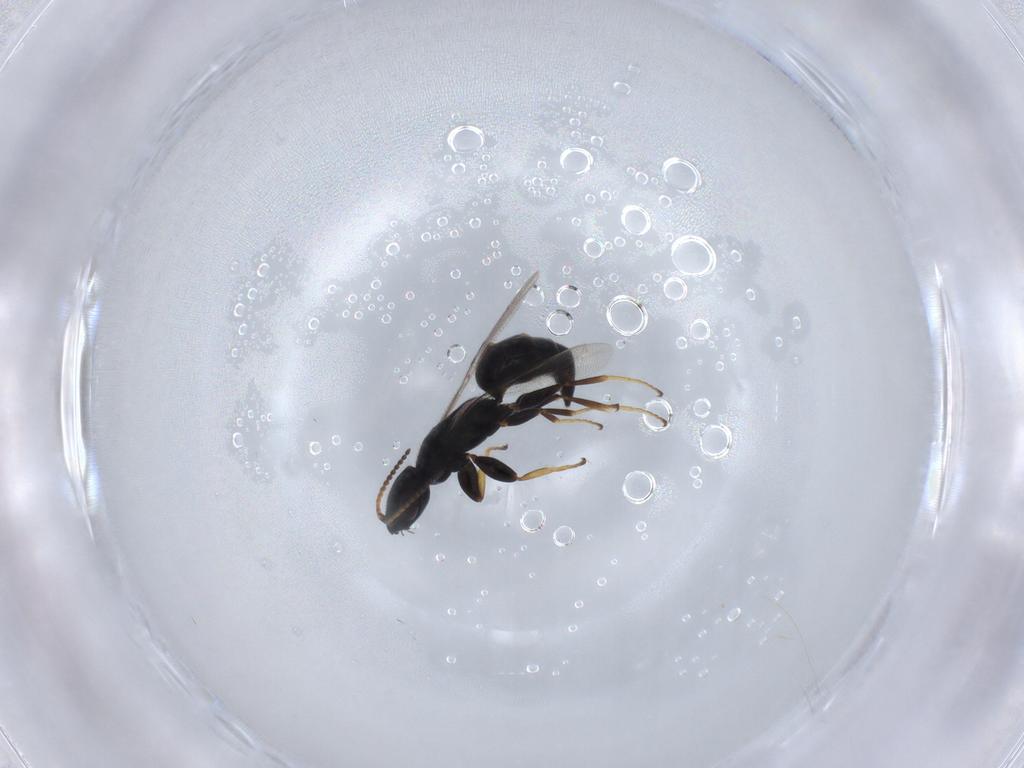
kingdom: Animalia
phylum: Arthropoda
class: Insecta
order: Hymenoptera
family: Bethylidae
